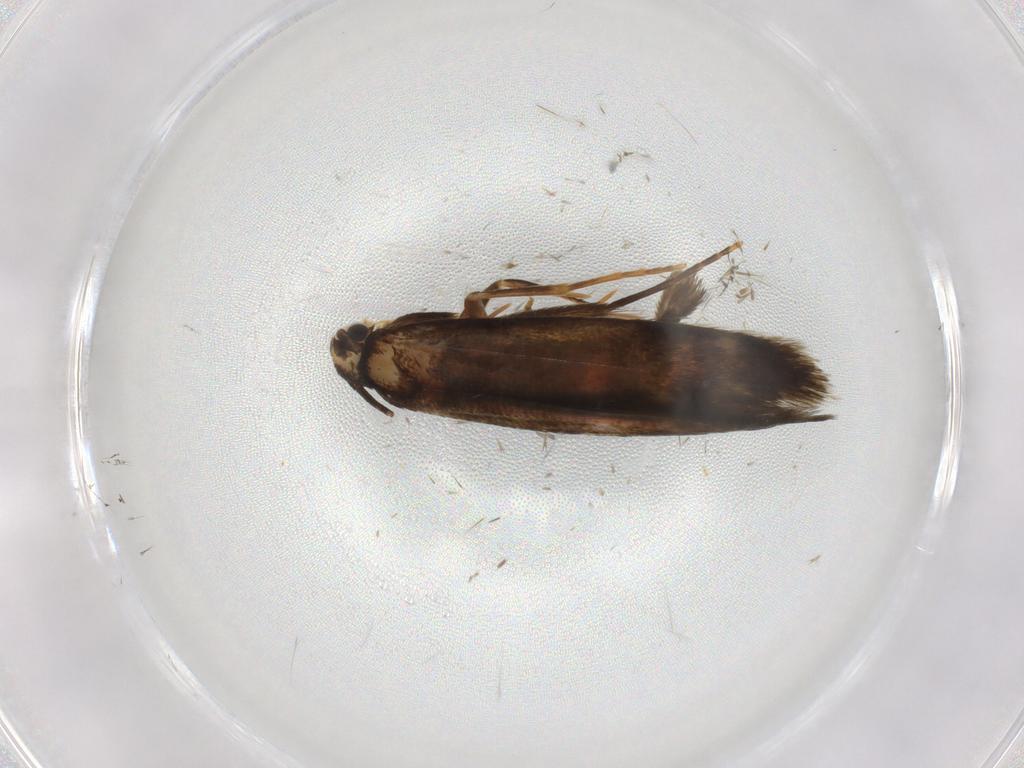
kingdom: Animalia
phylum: Arthropoda
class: Insecta
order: Lepidoptera
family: Tineidae
